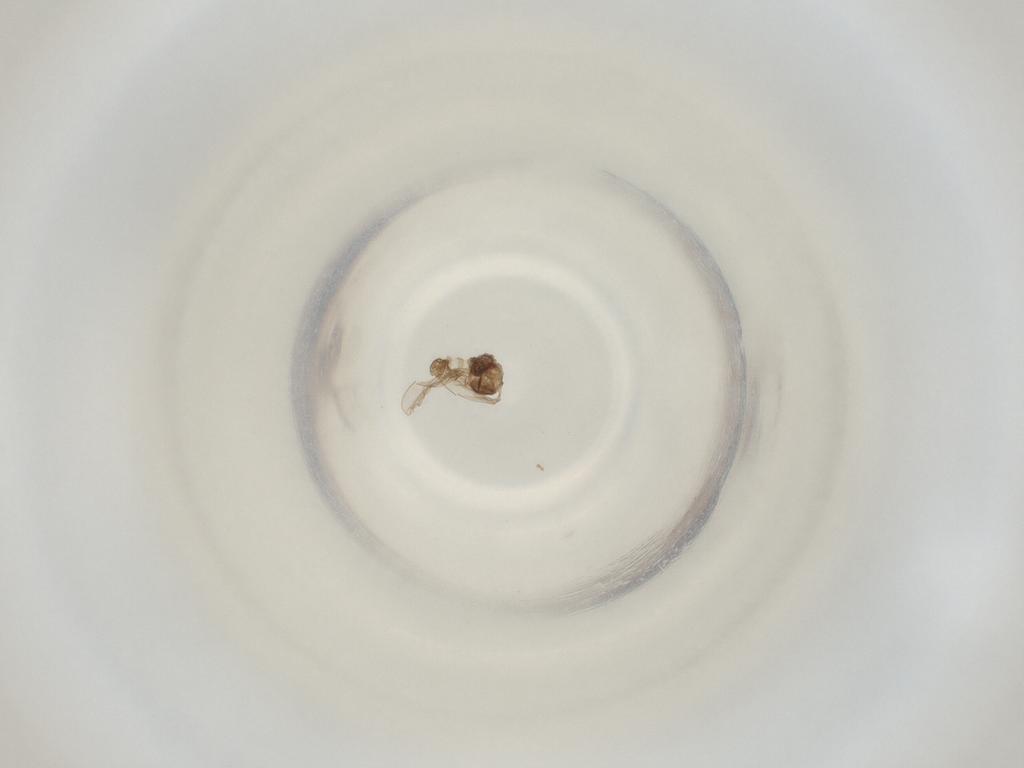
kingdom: Animalia
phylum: Arthropoda
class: Insecta
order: Diptera
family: Cecidomyiidae
